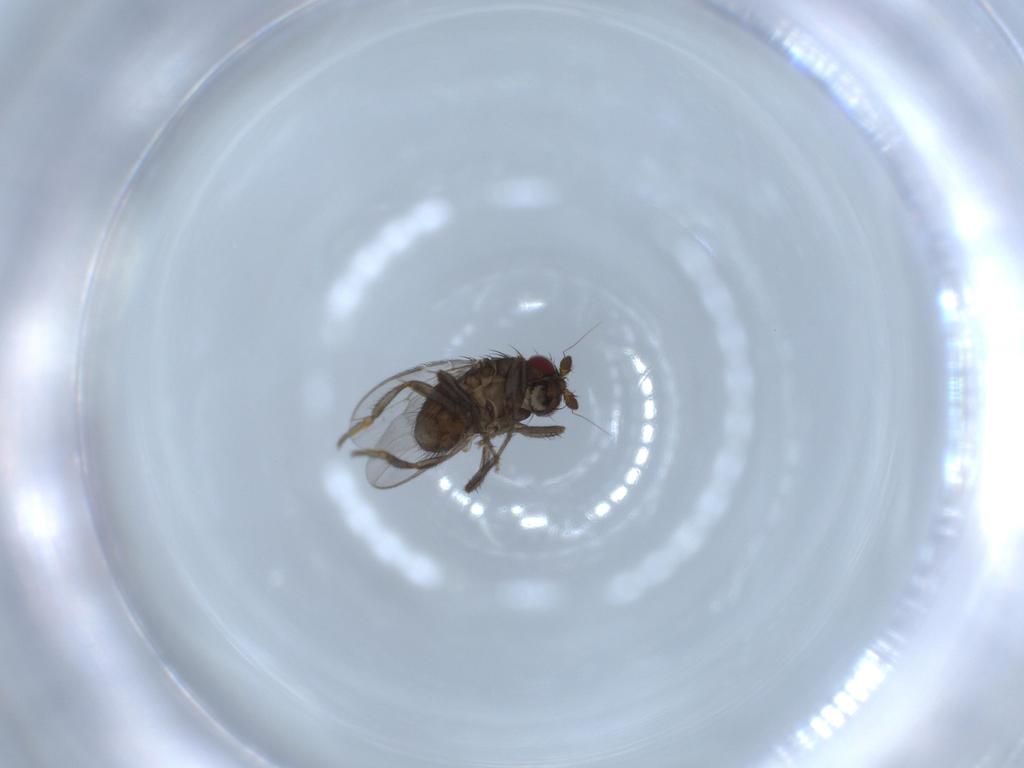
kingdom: Animalia
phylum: Arthropoda
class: Insecta
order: Diptera
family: Sphaeroceridae
